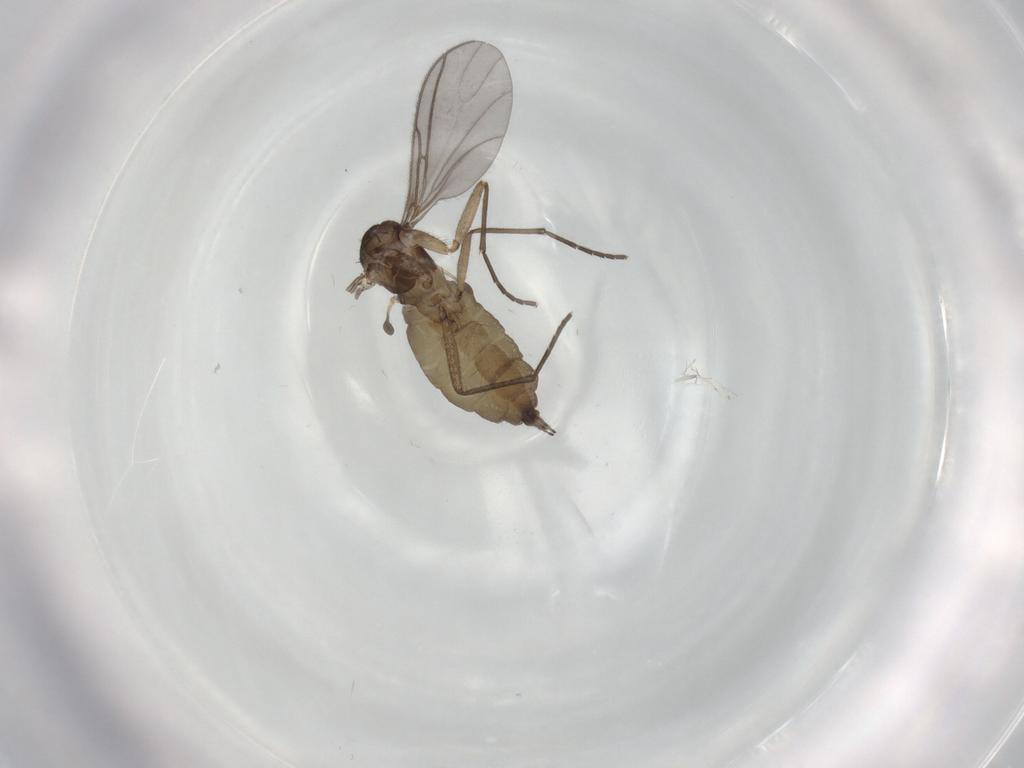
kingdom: Animalia
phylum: Arthropoda
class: Insecta
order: Diptera
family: Sciaridae
